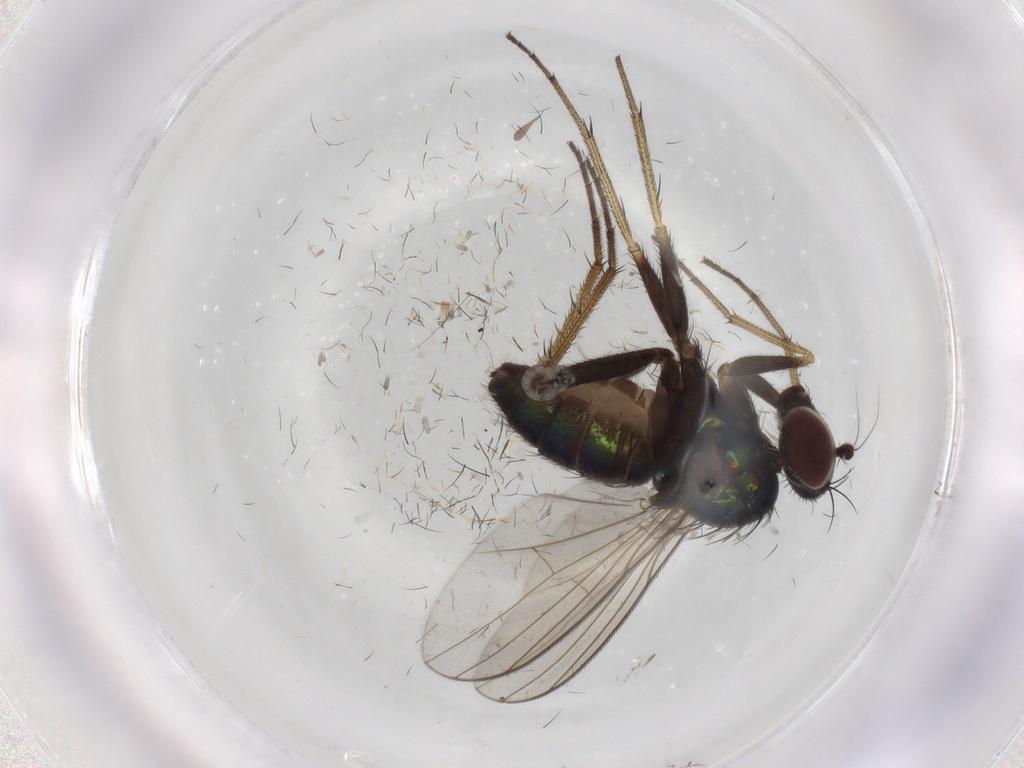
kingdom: Animalia
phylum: Arthropoda
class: Insecta
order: Diptera
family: Dolichopodidae
